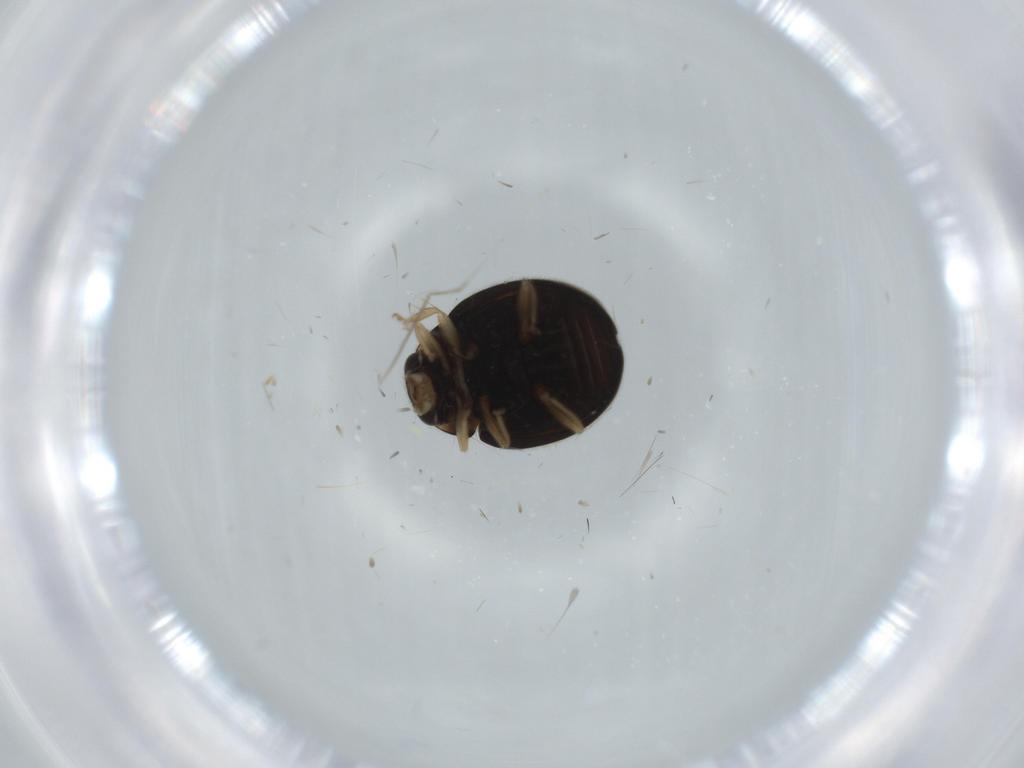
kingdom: Animalia
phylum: Arthropoda
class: Insecta
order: Coleoptera
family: Coccinellidae
